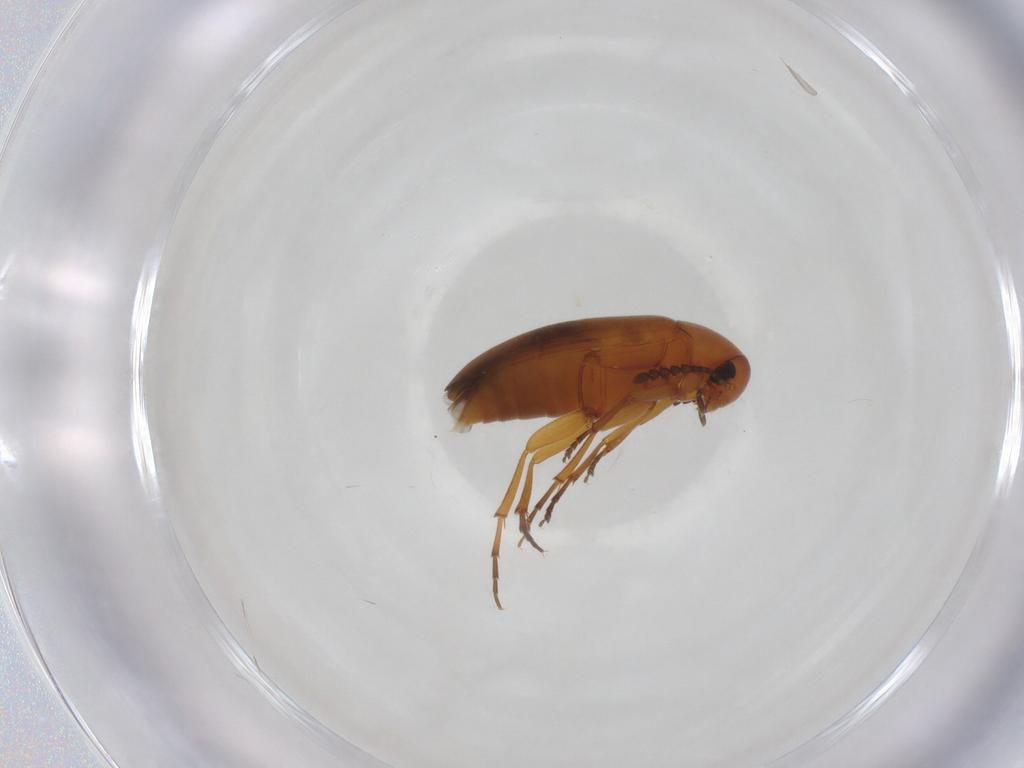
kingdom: Animalia
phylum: Arthropoda
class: Insecta
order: Coleoptera
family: Scraptiidae
